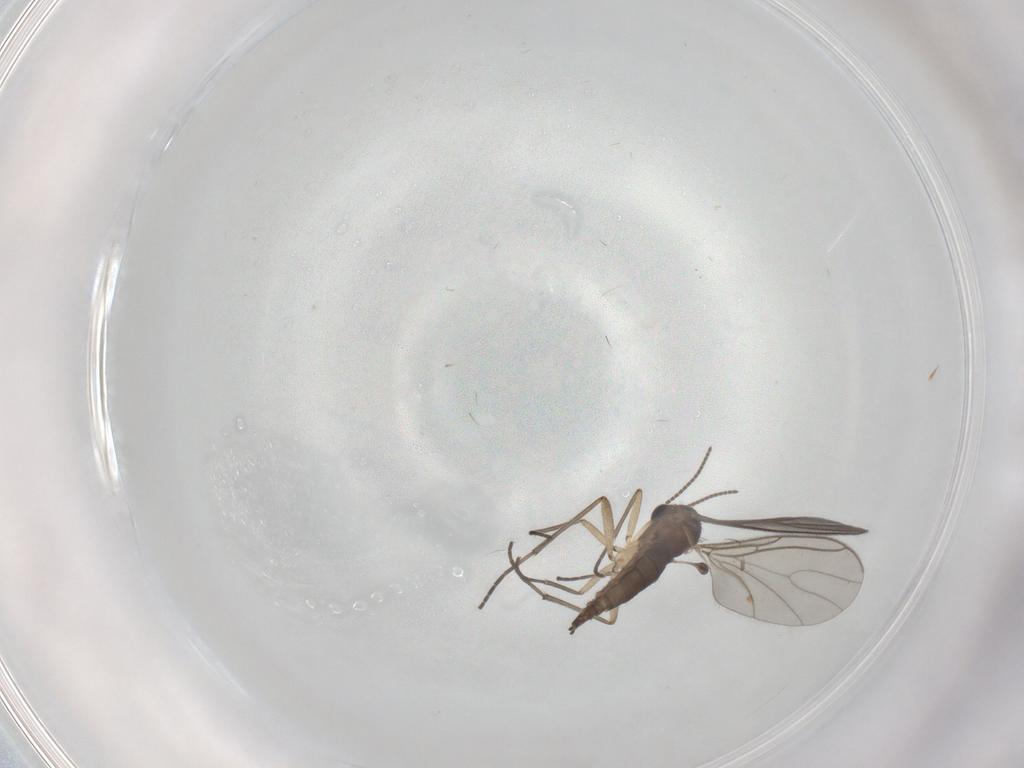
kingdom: Animalia
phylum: Arthropoda
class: Insecta
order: Diptera
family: Sciaridae
